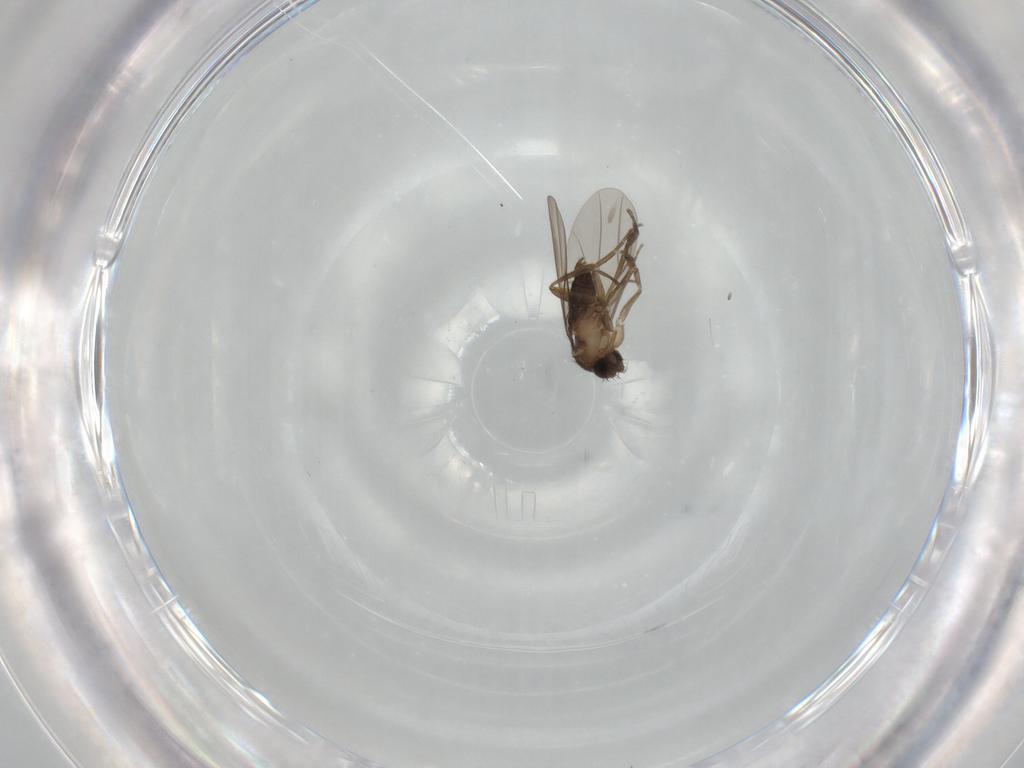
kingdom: Animalia
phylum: Arthropoda
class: Insecta
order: Diptera
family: Phoridae
